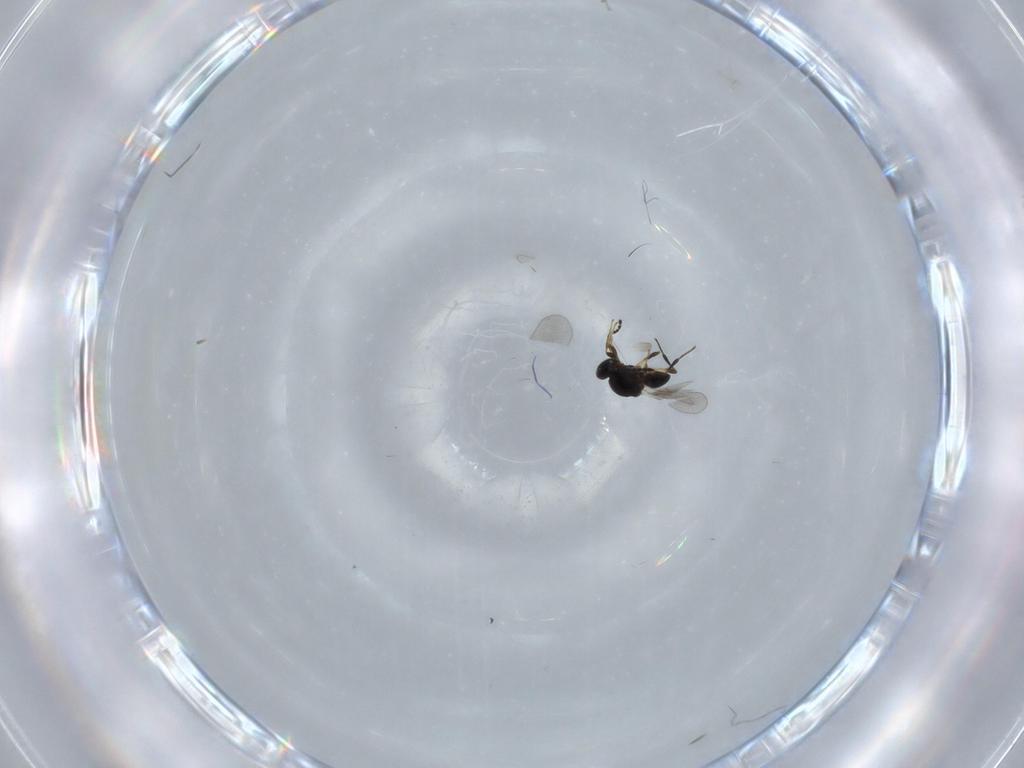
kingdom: Animalia
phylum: Arthropoda
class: Insecta
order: Hymenoptera
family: Platygastridae
